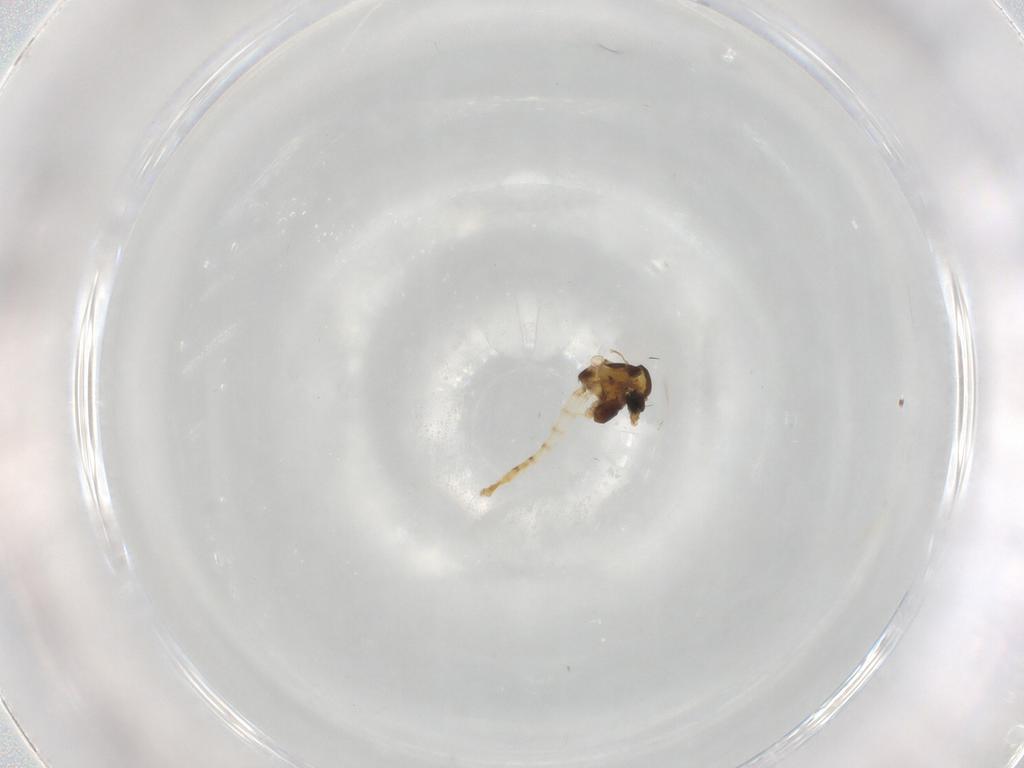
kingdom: Animalia
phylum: Arthropoda
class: Insecta
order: Diptera
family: Chironomidae
